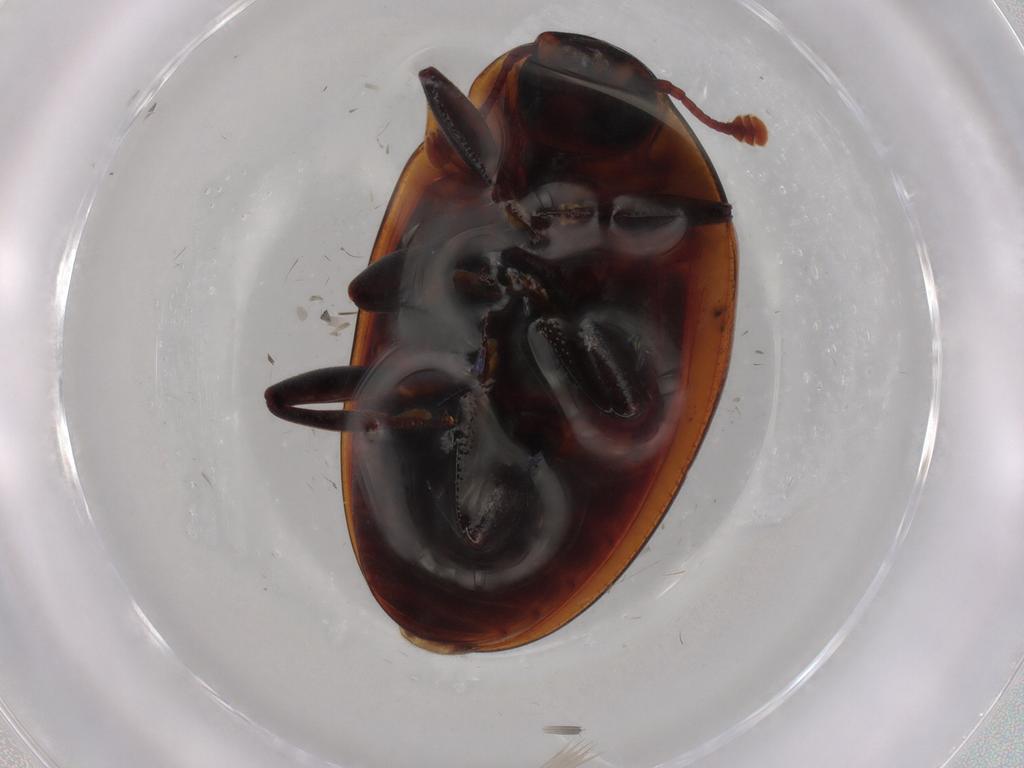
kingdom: Animalia
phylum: Arthropoda
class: Insecta
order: Coleoptera
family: Zopheridae
